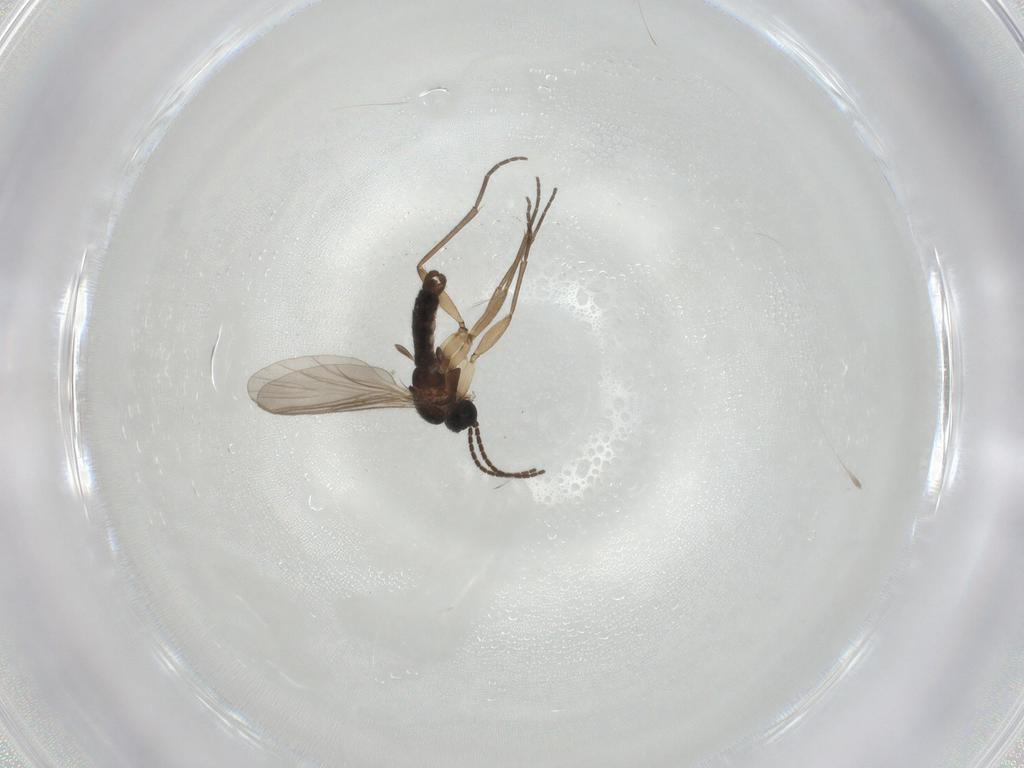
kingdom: Animalia
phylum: Arthropoda
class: Insecta
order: Diptera
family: Sciaridae
